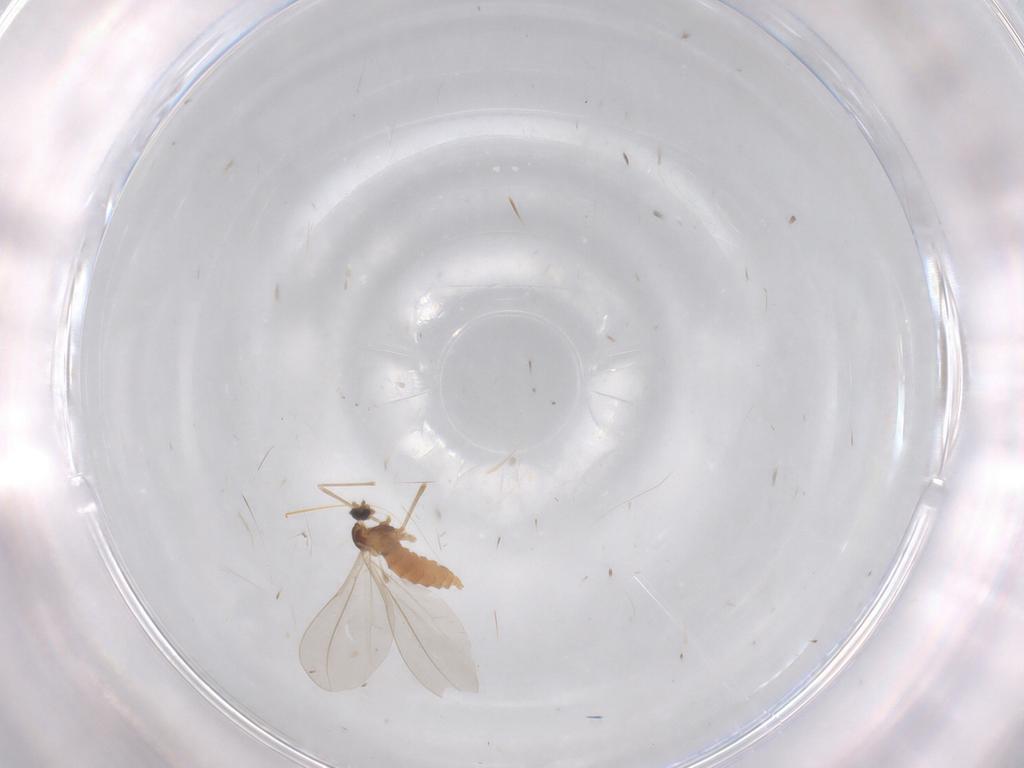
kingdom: Animalia
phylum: Arthropoda
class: Insecta
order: Diptera
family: Cecidomyiidae
